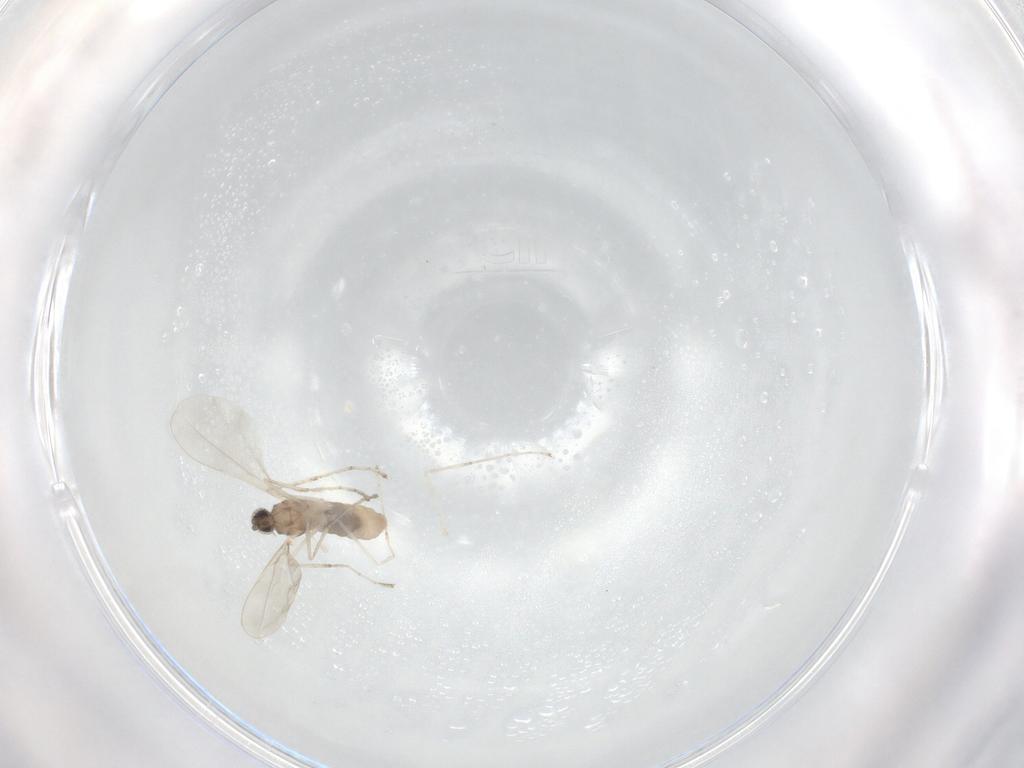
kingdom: Animalia
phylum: Arthropoda
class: Insecta
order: Diptera
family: Cecidomyiidae
